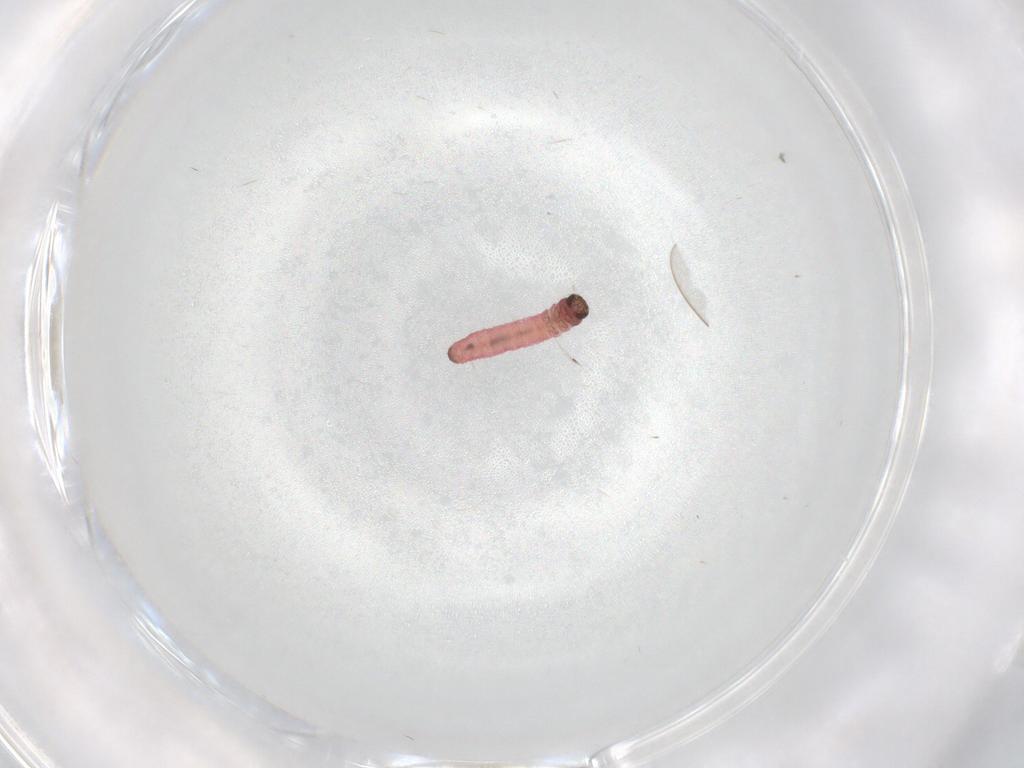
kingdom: Animalia
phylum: Arthropoda
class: Insecta
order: Lepidoptera
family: Oecophoridae
